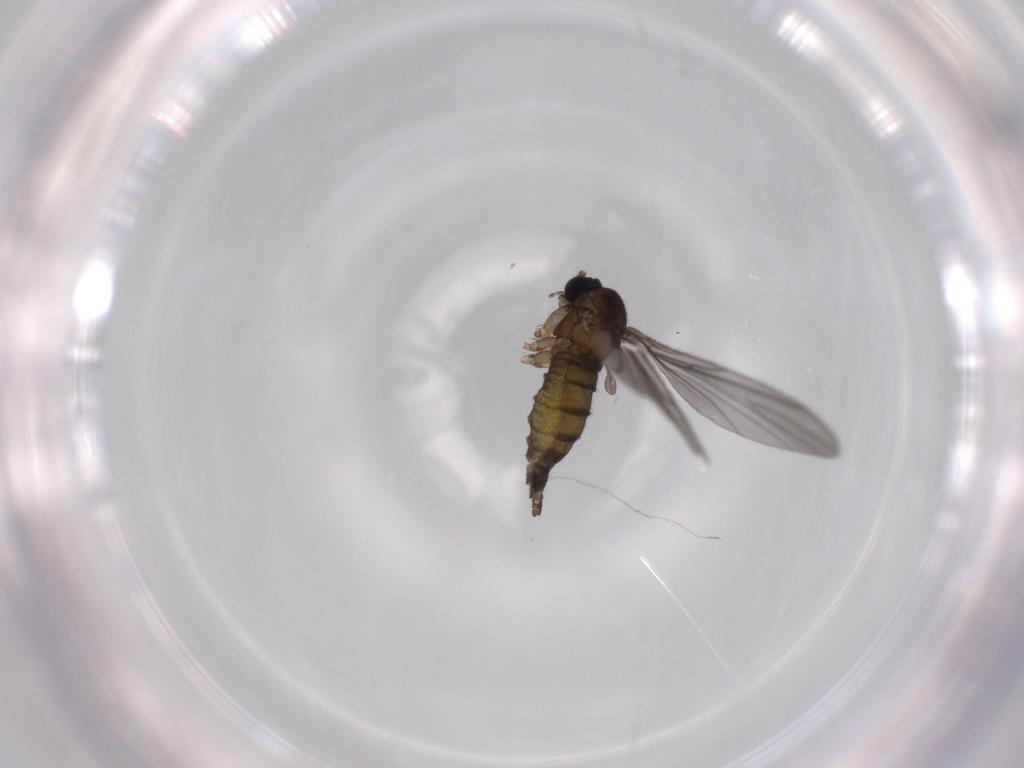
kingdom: Animalia
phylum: Arthropoda
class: Insecta
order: Diptera
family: Sciaridae
